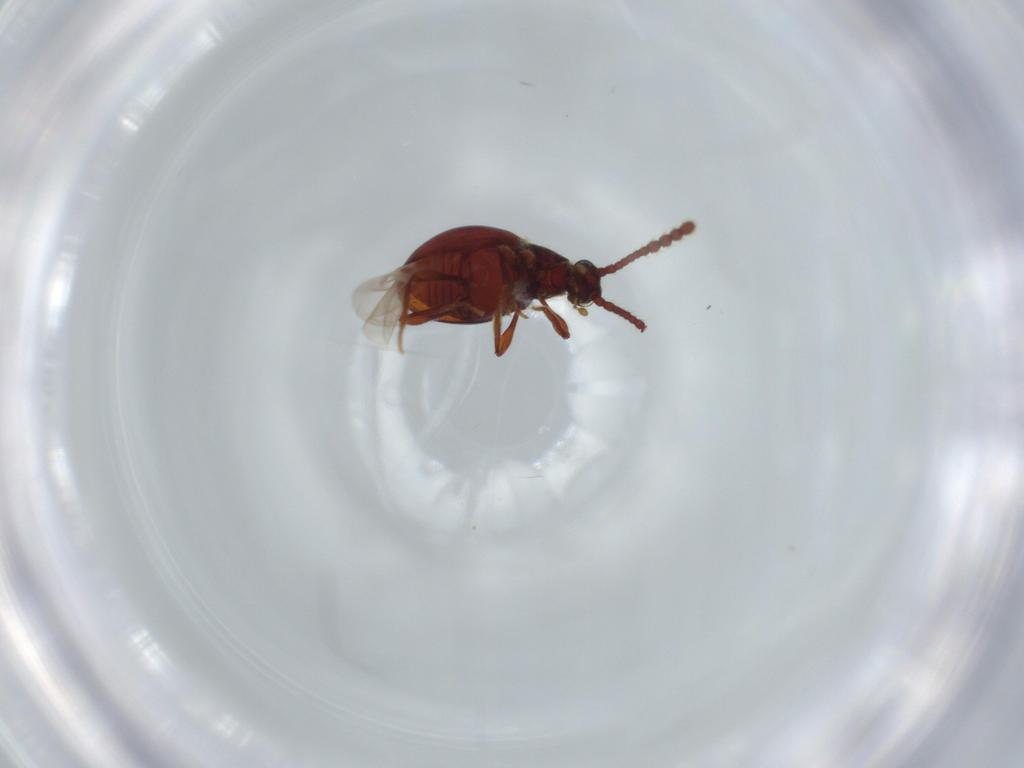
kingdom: Animalia
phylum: Arthropoda
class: Insecta
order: Coleoptera
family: Staphylinidae
